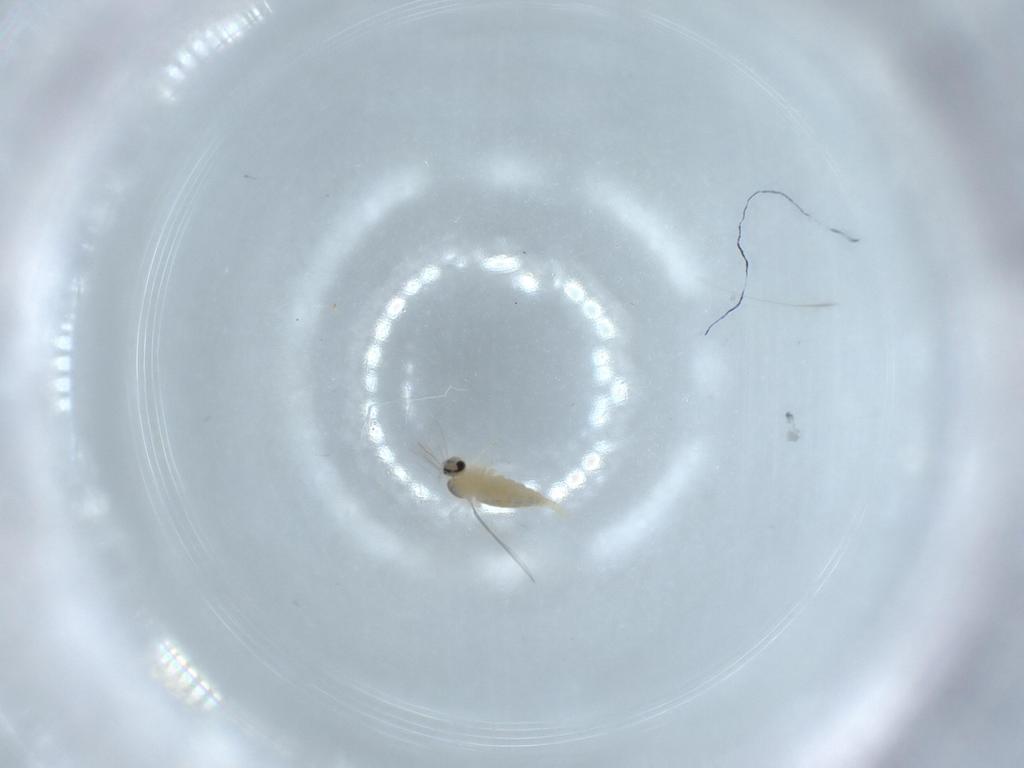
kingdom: Animalia
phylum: Arthropoda
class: Insecta
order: Diptera
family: Cecidomyiidae
